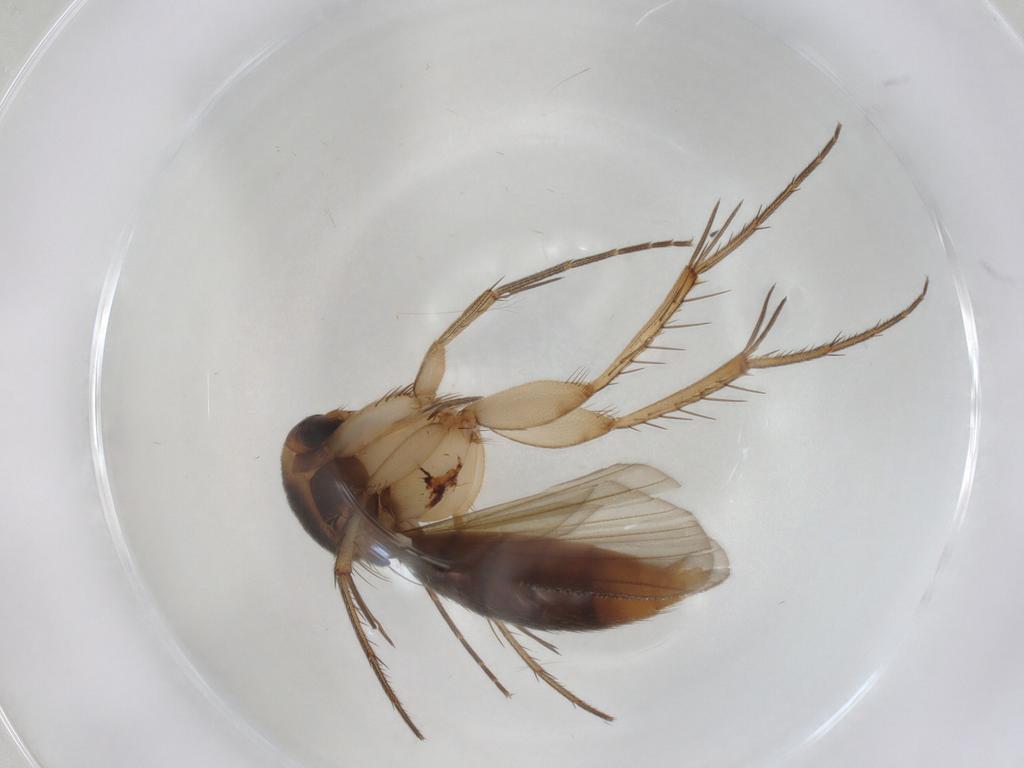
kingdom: Animalia
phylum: Arthropoda
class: Insecta
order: Diptera
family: Mycetophilidae
